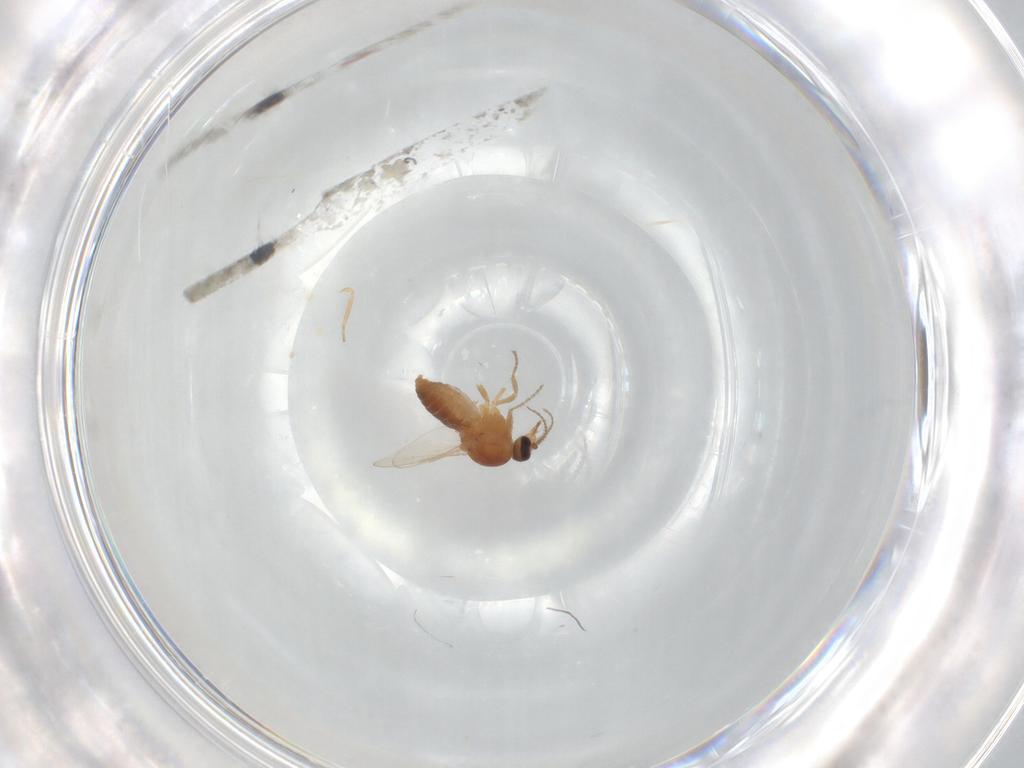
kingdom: Animalia
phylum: Arthropoda
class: Insecta
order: Diptera
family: Ceratopogonidae
